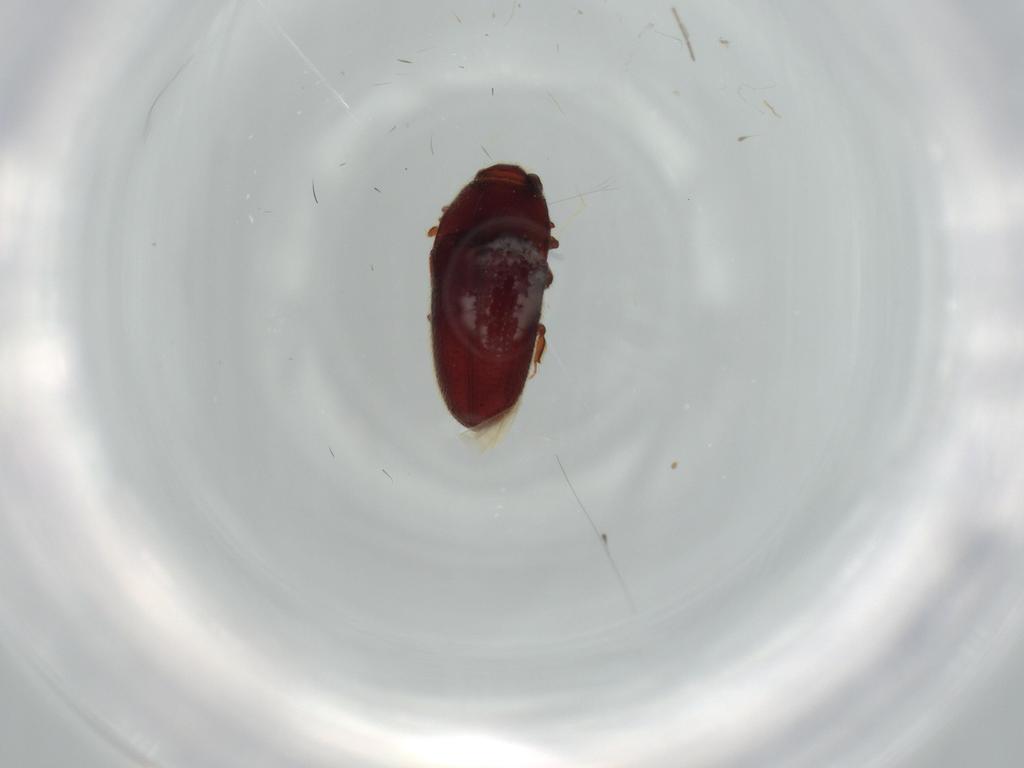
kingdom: Animalia
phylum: Arthropoda
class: Insecta
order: Coleoptera
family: Throscidae
